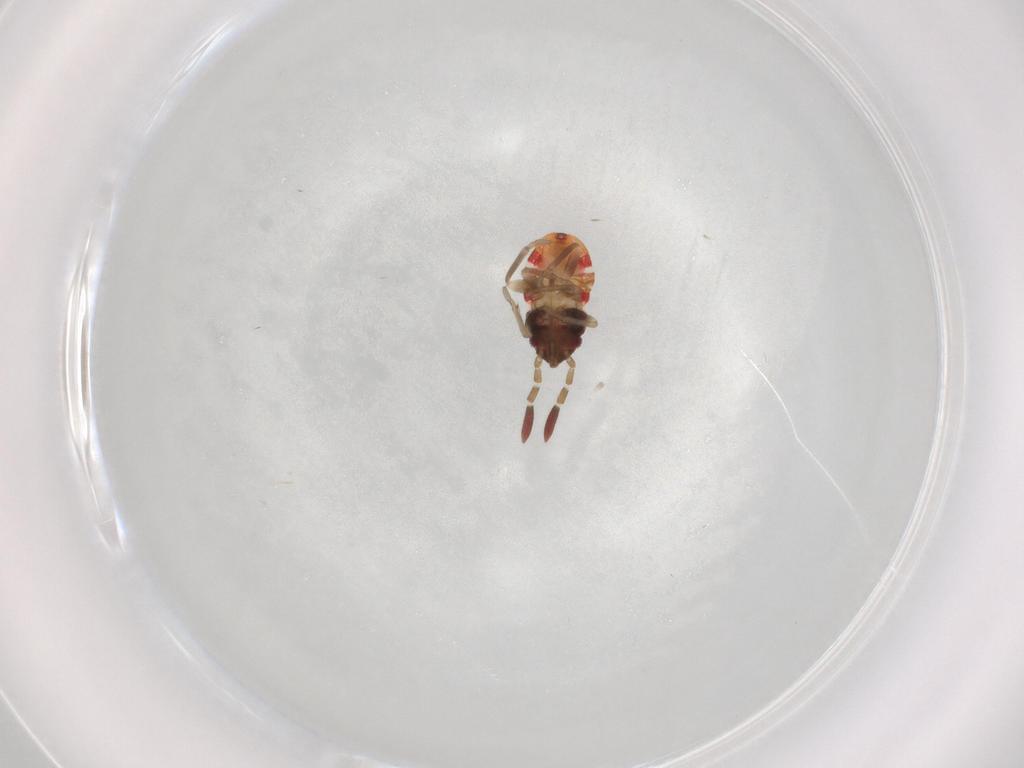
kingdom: Animalia
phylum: Arthropoda
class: Insecta
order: Hemiptera
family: Rhyparochromidae
